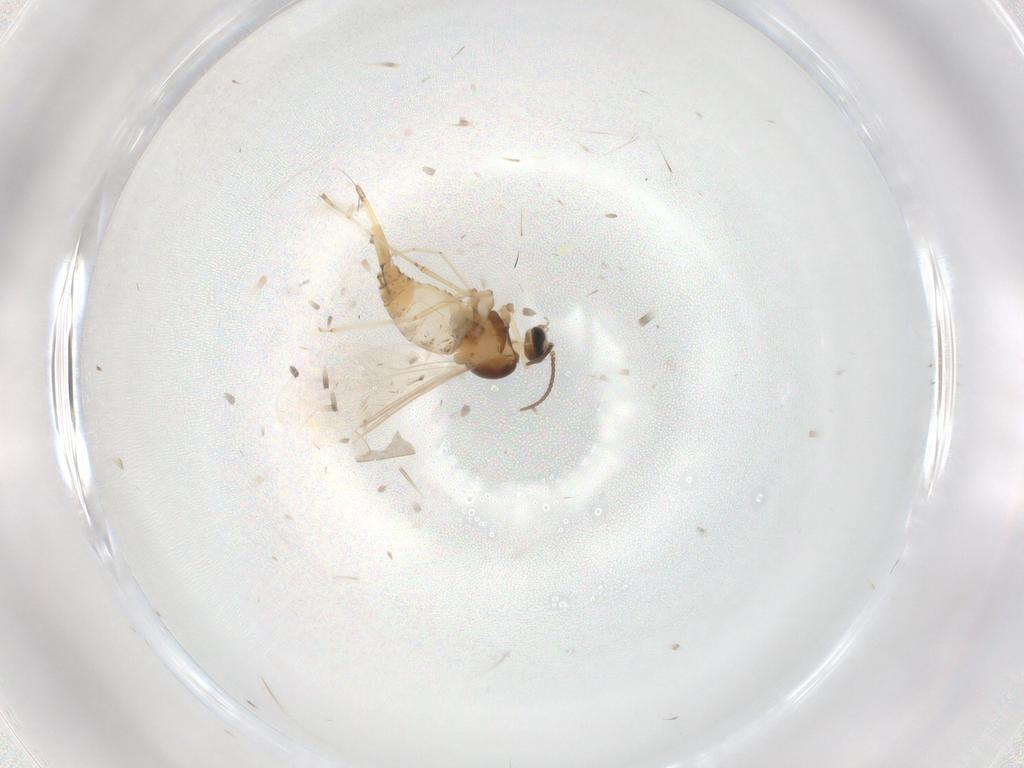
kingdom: Animalia
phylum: Arthropoda
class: Insecta
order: Diptera
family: Cecidomyiidae
